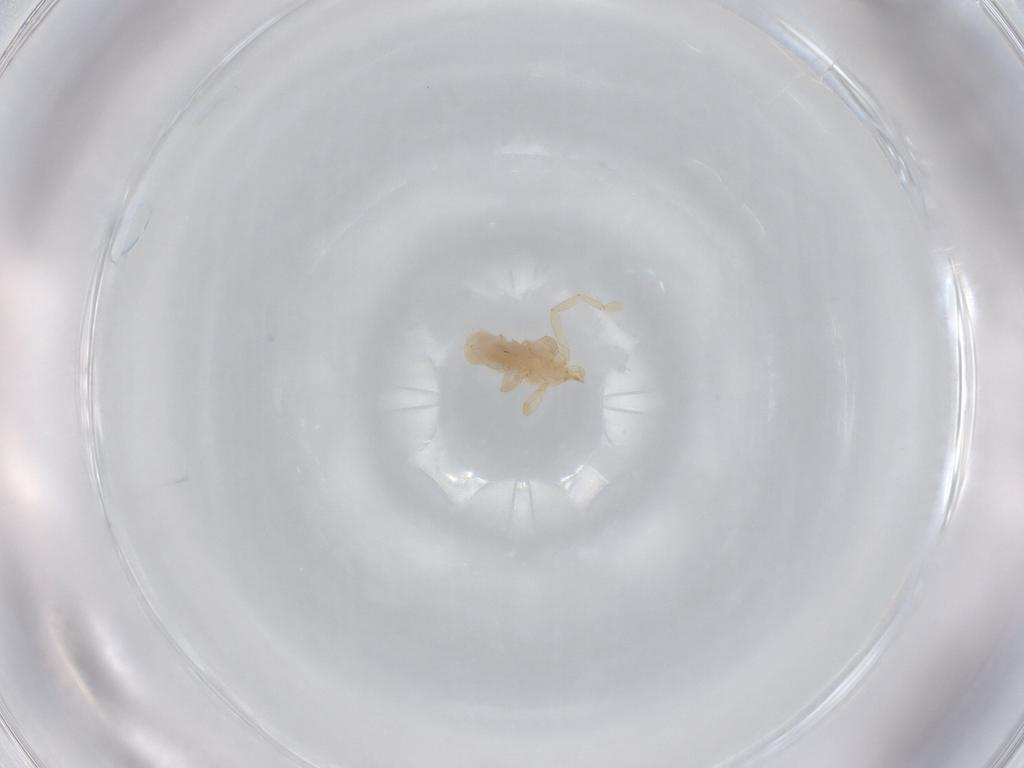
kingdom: Animalia
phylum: Arthropoda
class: Arachnida
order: Trombidiformes
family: Erythraeidae
